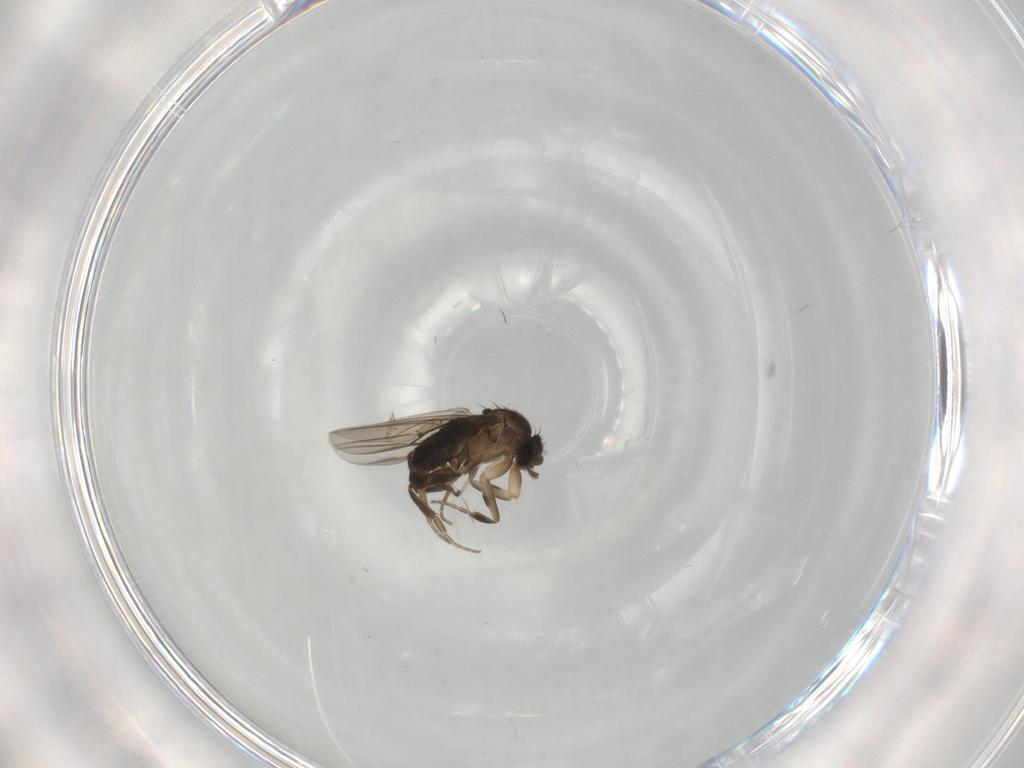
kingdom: Animalia
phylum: Arthropoda
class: Insecta
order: Diptera
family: Phoridae
